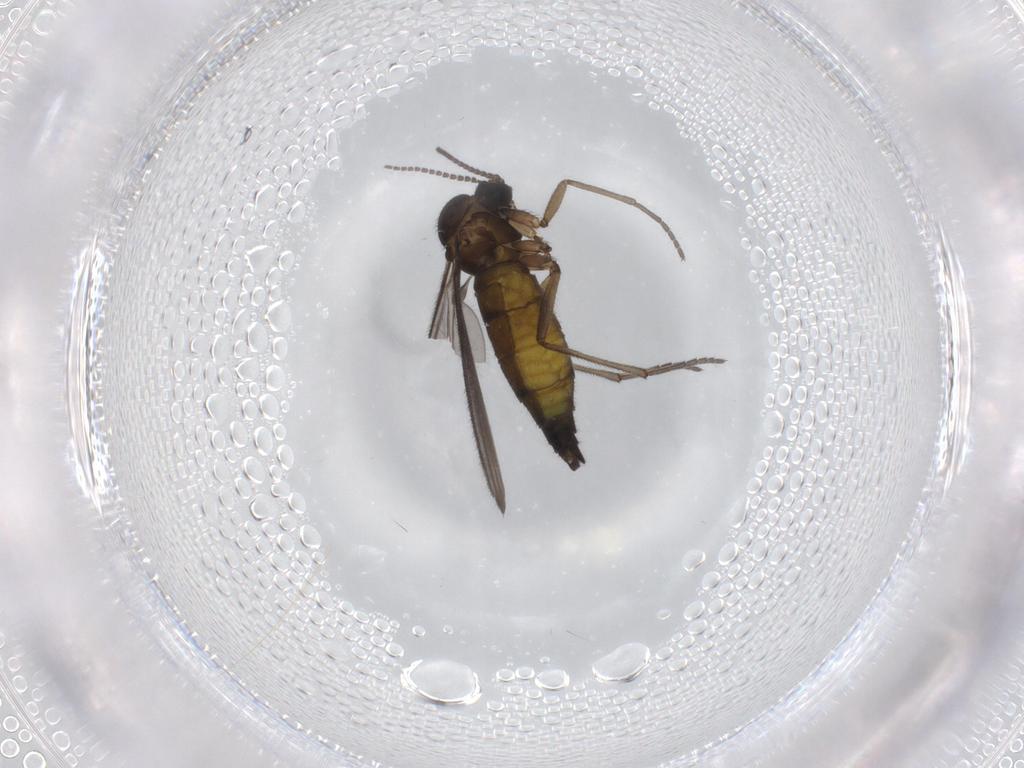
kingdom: Animalia
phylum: Arthropoda
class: Insecta
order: Diptera
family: Sciaridae
